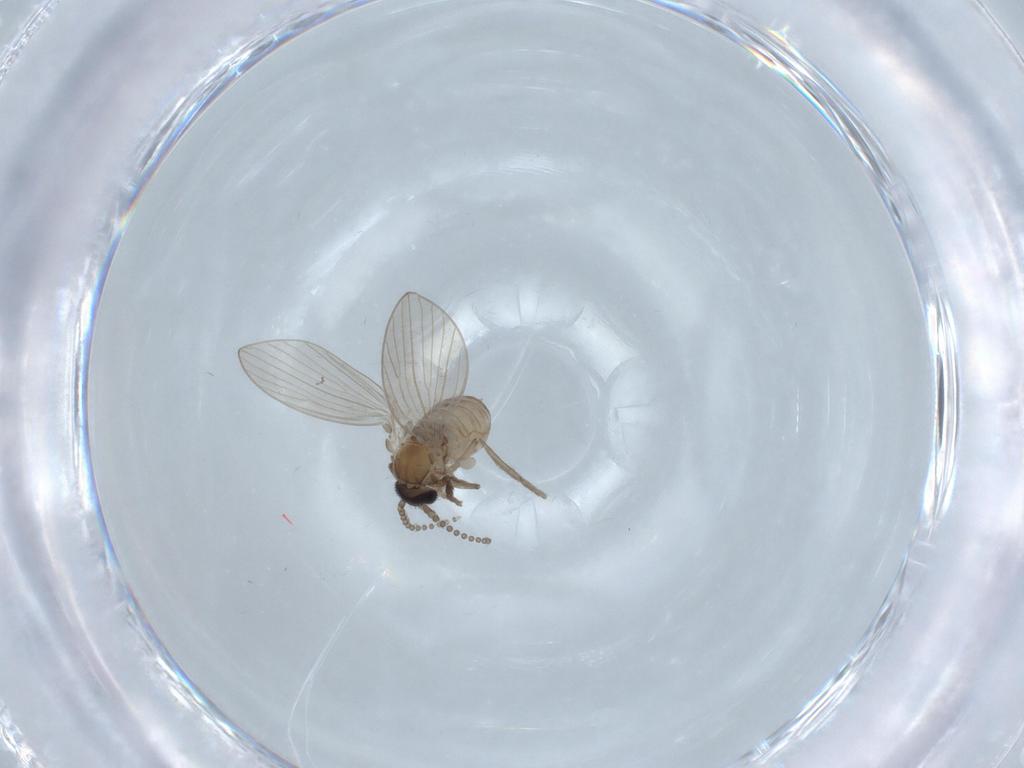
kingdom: Animalia
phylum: Arthropoda
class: Insecta
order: Diptera
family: Psychodidae
